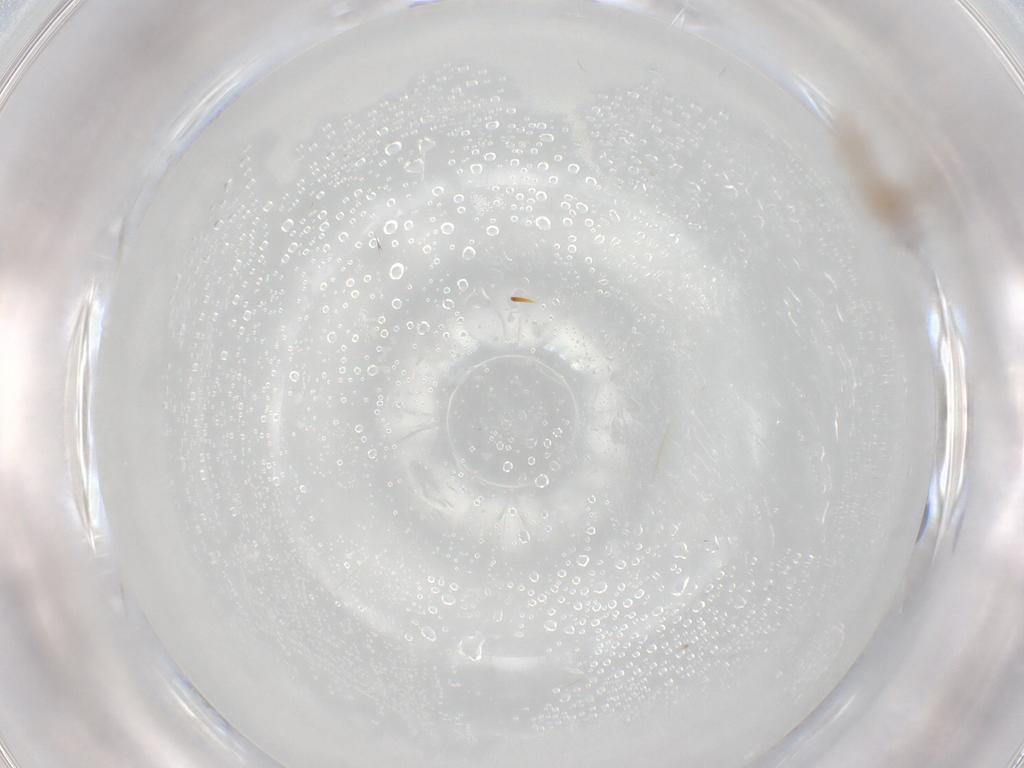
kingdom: Animalia
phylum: Arthropoda
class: Insecta
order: Diptera
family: Cecidomyiidae
